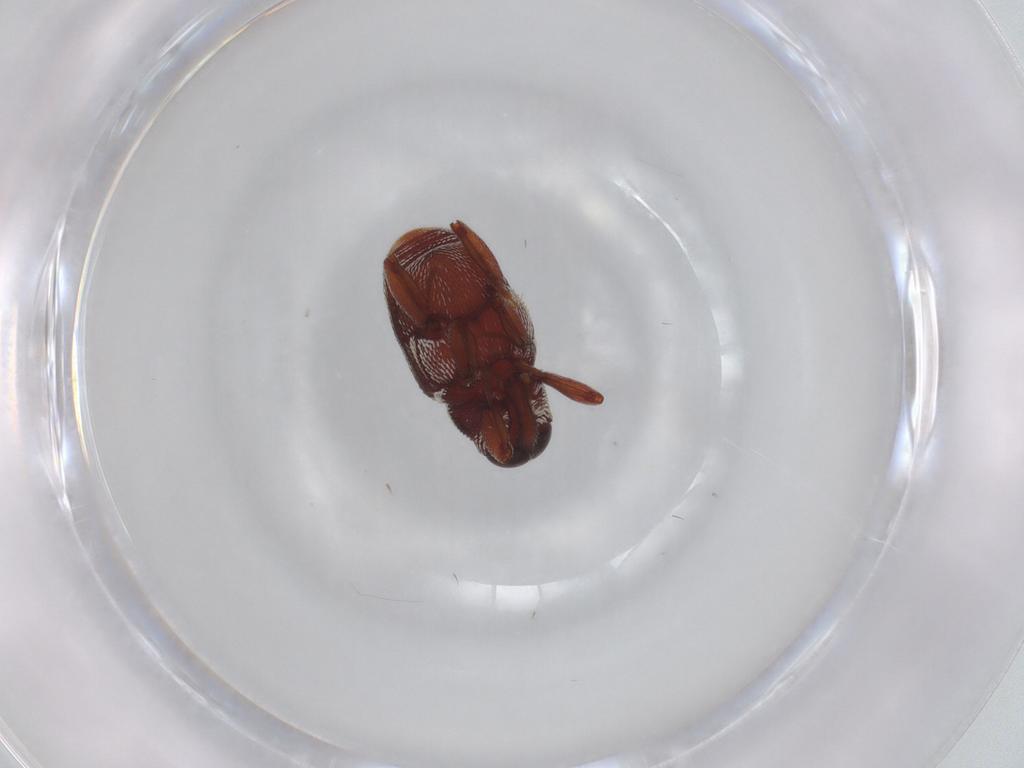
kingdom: Animalia
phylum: Arthropoda
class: Insecta
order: Coleoptera
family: Curculionidae
